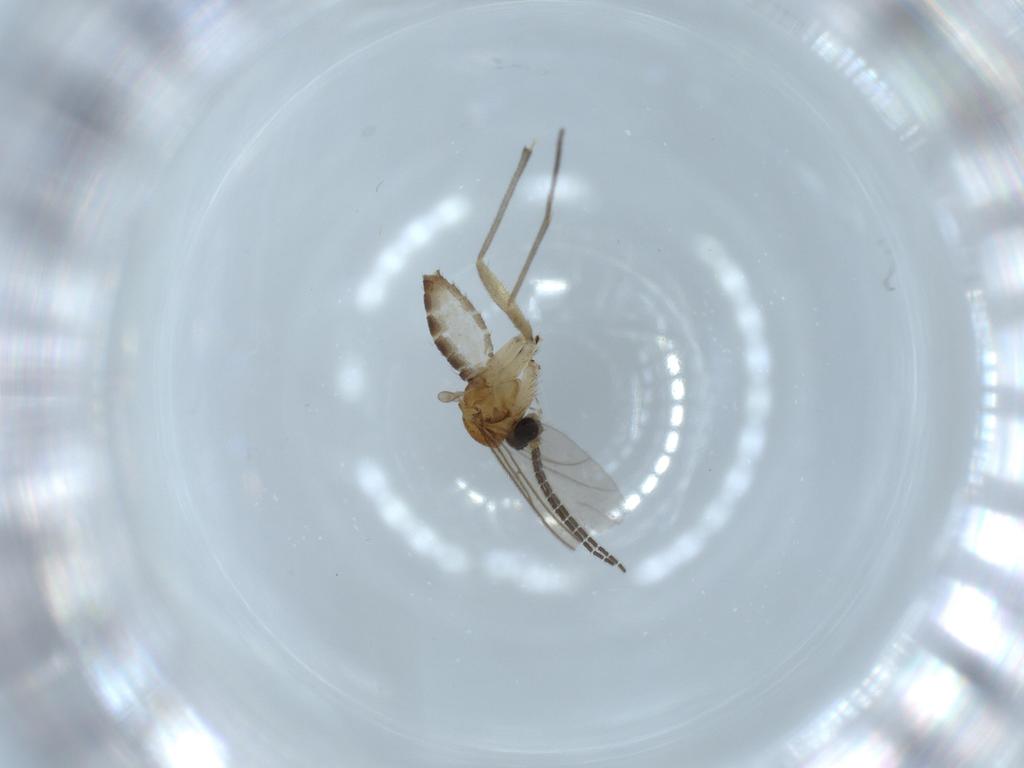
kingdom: Animalia
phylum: Arthropoda
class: Insecta
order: Diptera
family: Sciaridae
